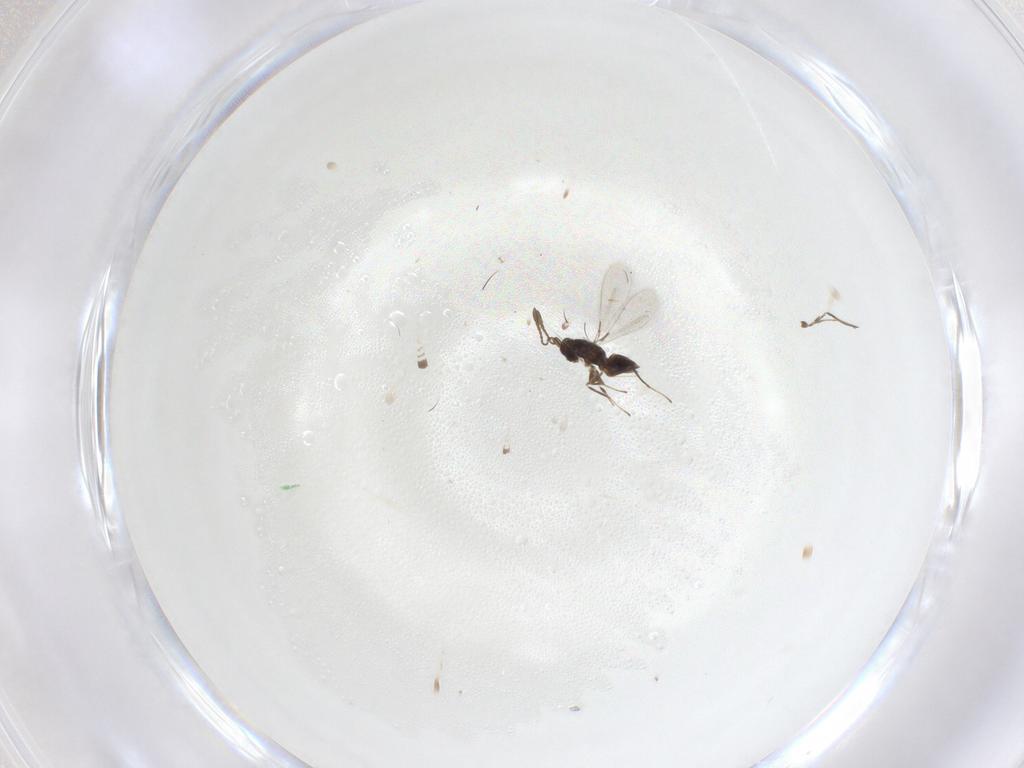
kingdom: Animalia
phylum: Arthropoda
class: Insecta
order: Hymenoptera
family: Mymaridae
